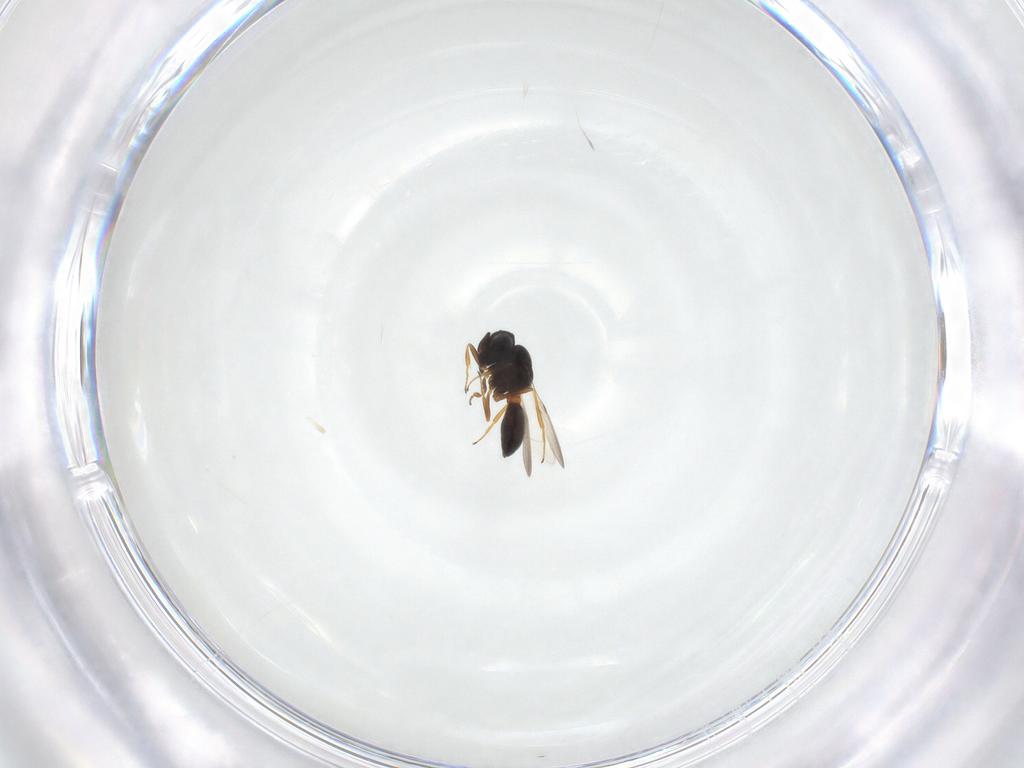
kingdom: Animalia
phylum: Arthropoda
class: Arachnida
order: Araneae
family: Pholcidae
